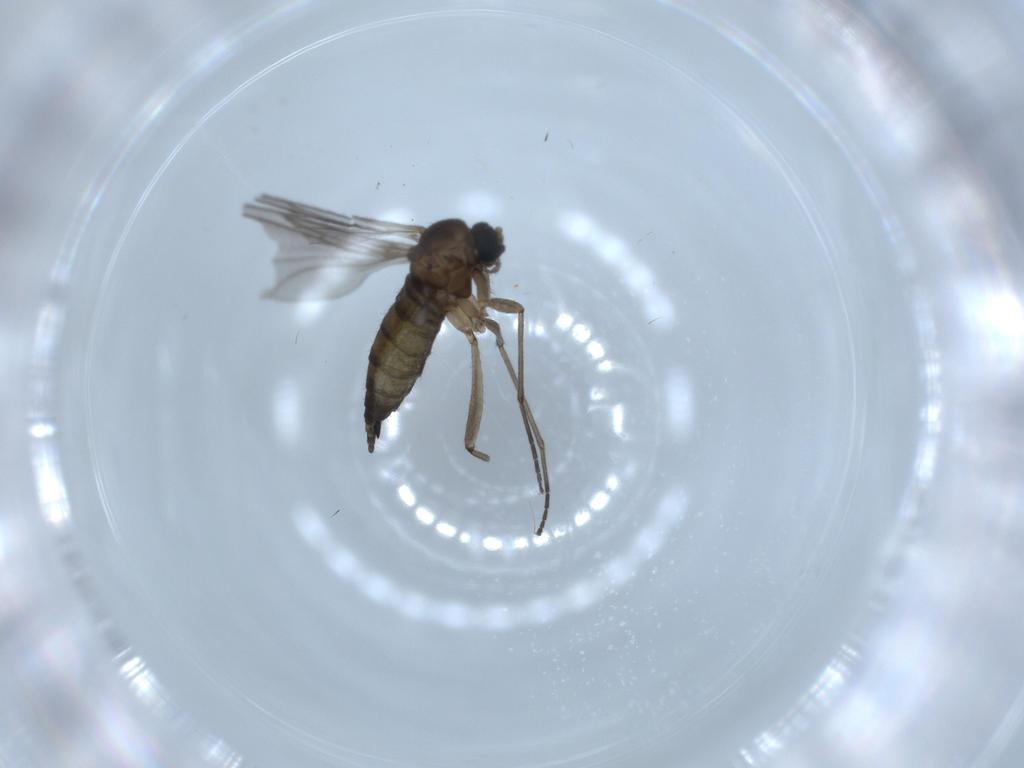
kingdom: Animalia
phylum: Arthropoda
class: Insecta
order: Diptera
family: Sciaridae
